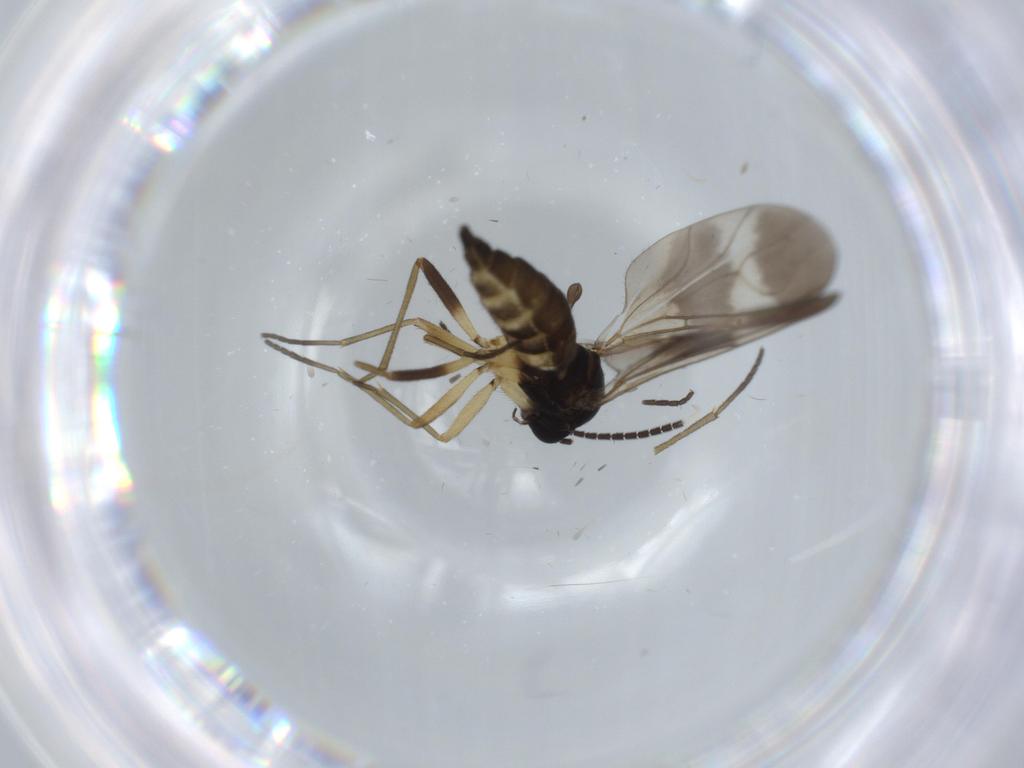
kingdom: Animalia
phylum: Arthropoda
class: Insecta
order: Diptera
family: Sciaridae
